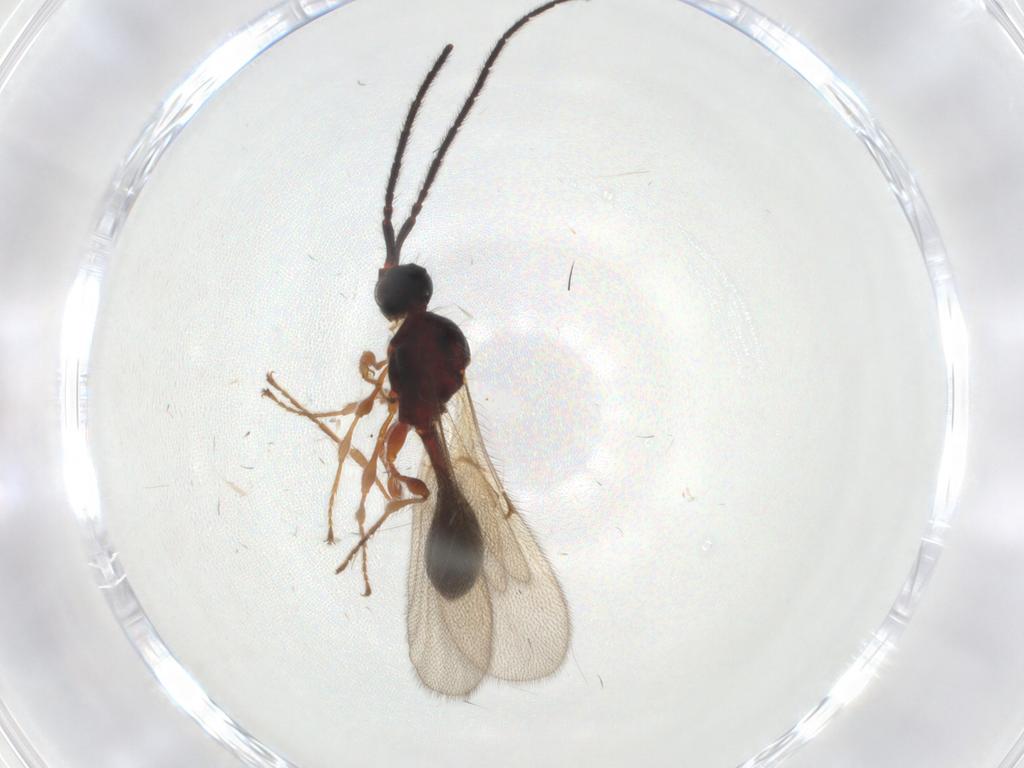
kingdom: Animalia
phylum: Arthropoda
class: Insecta
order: Hymenoptera
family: Diapriidae
